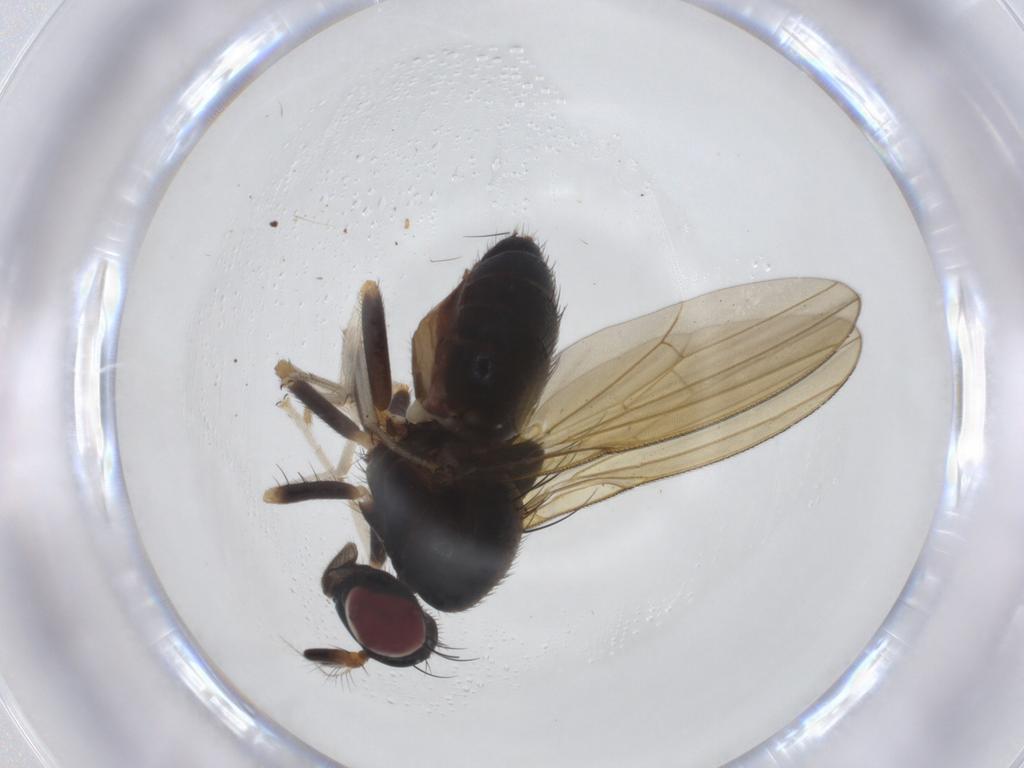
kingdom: Animalia
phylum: Arthropoda
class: Insecta
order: Diptera
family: Lauxaniidae
